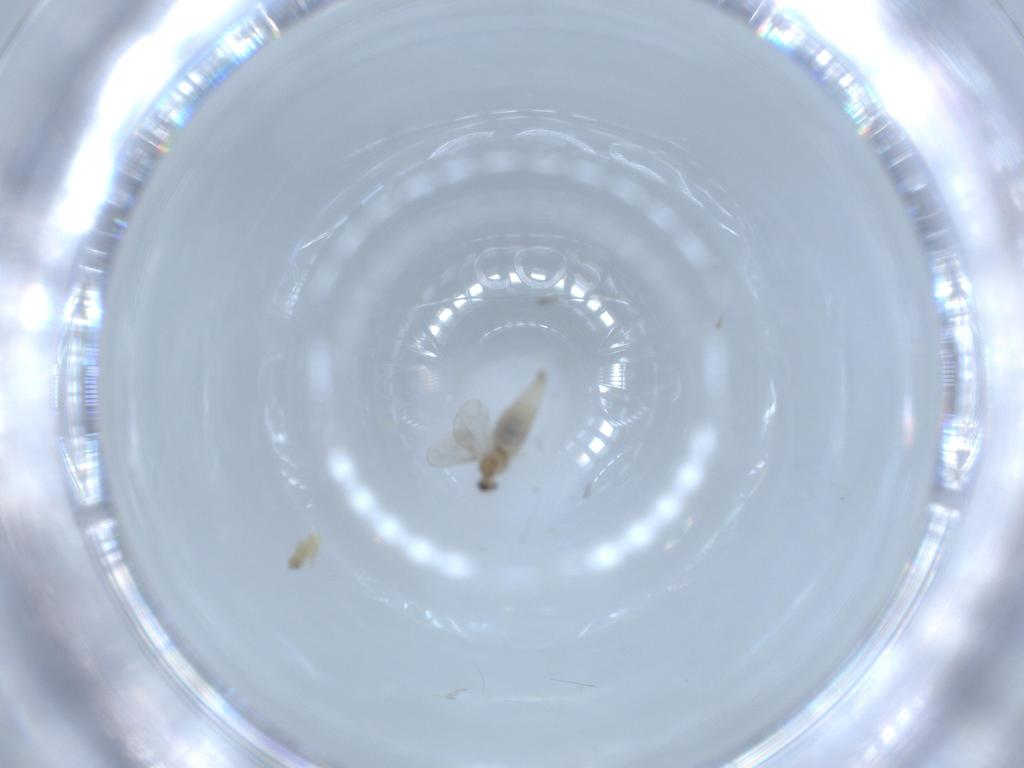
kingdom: Animalia
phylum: Arthropoda
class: Insecta
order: Diptera
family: Cecidomyiidae
